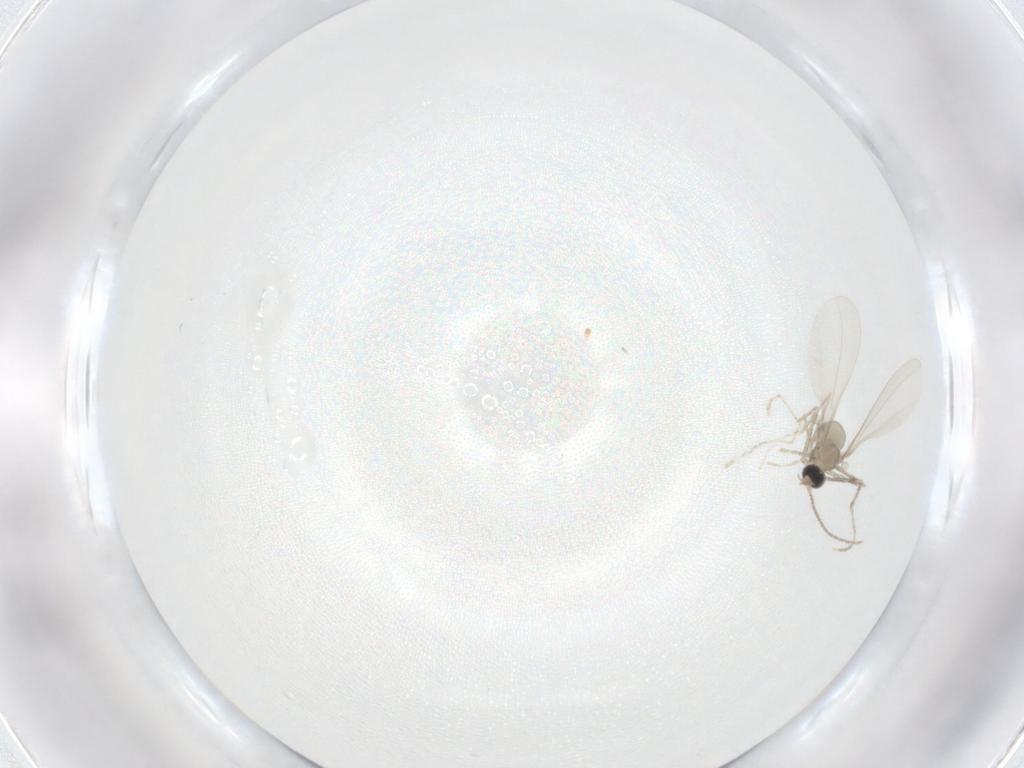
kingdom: Animalia
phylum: Arthropoda
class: Insecta
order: Diptera
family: Cecidomyiidae
